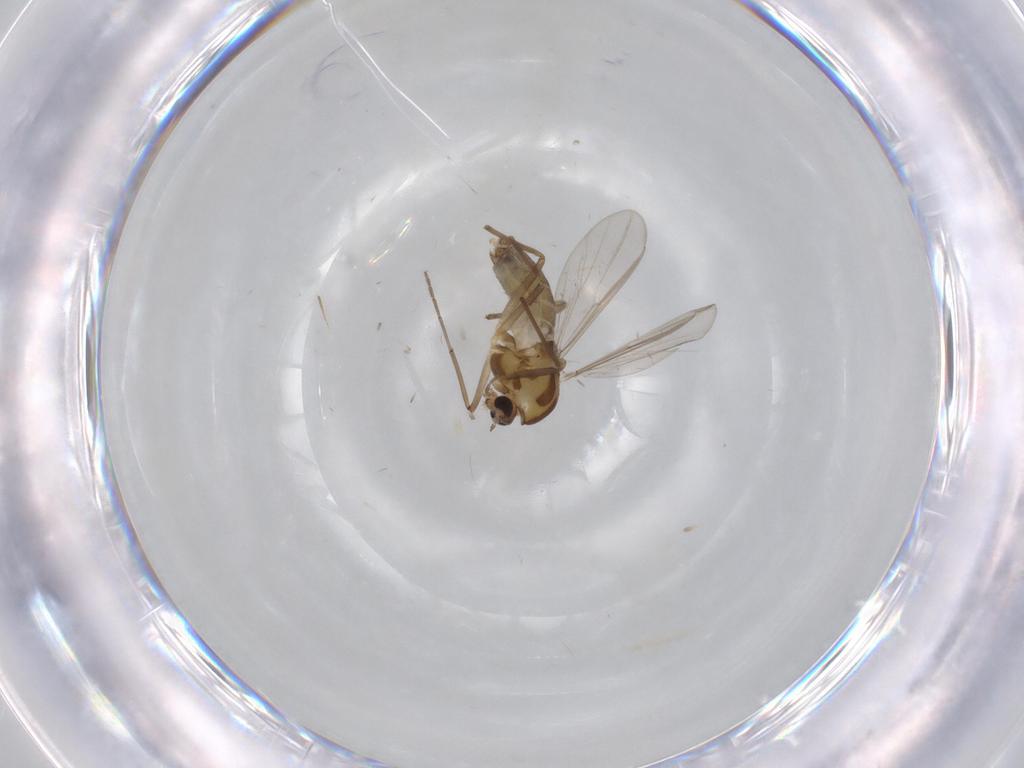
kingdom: Animalia
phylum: Arthropoda
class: Insecta
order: Diptera
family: Chironomidae
